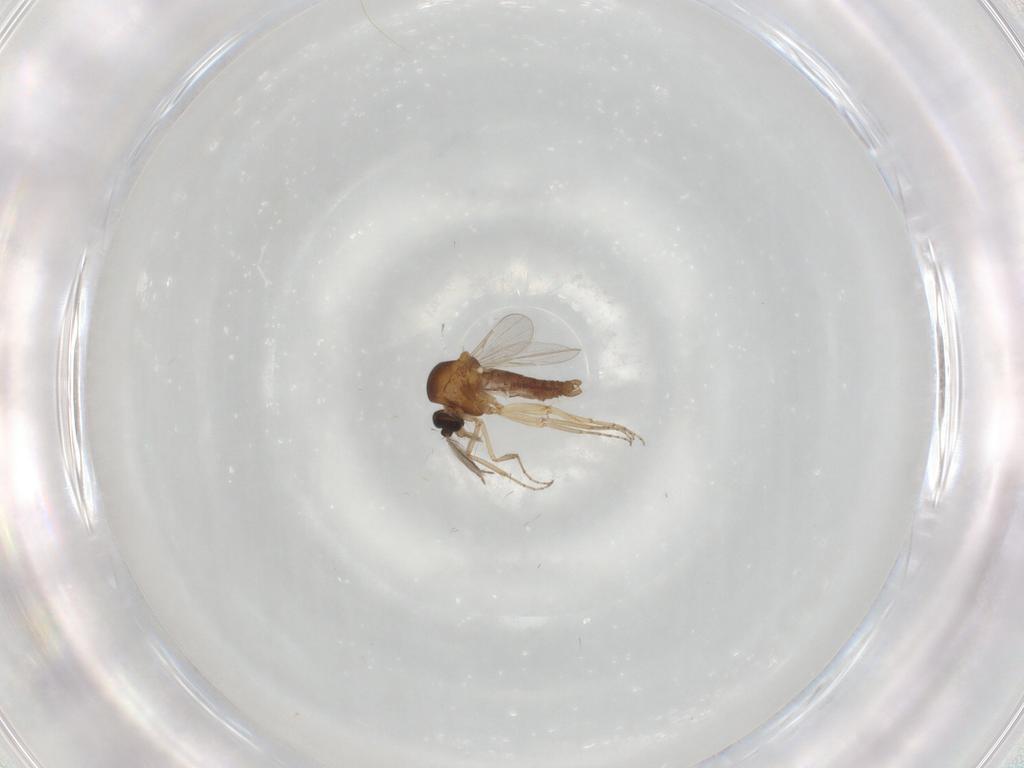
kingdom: Animalia
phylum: Arthropoda
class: Insecta
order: Diptera
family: Ceratopogonidae
